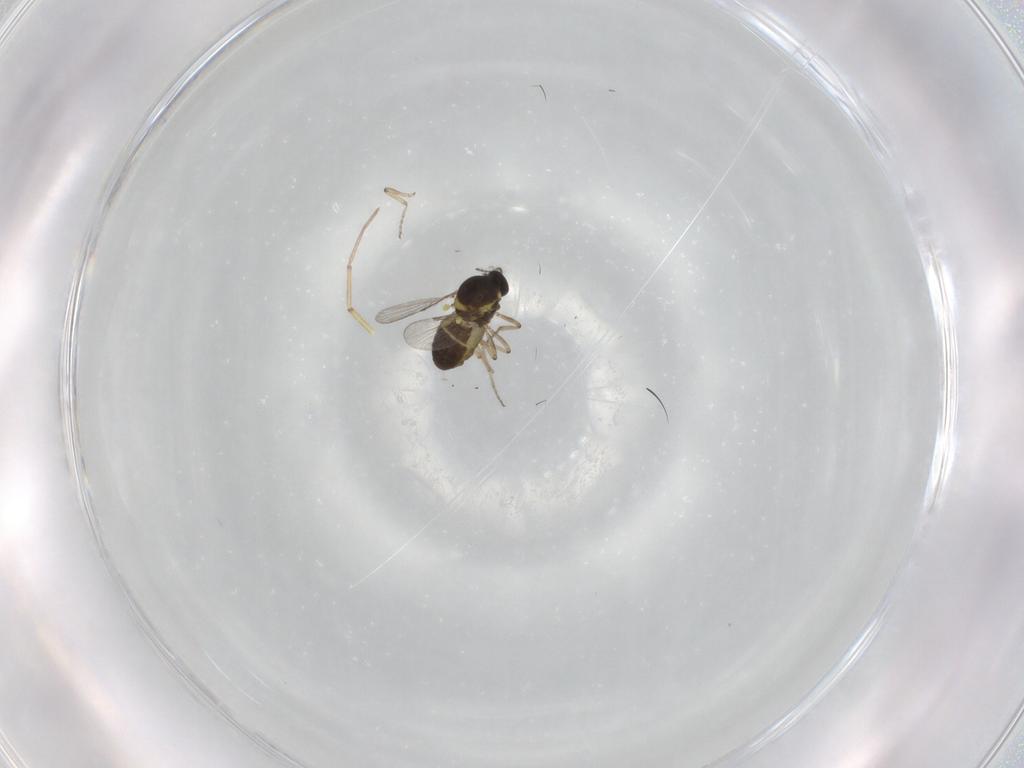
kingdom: Animalia
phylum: Arthropoda
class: Insecta
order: Diptera
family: Ceratopogonidae
